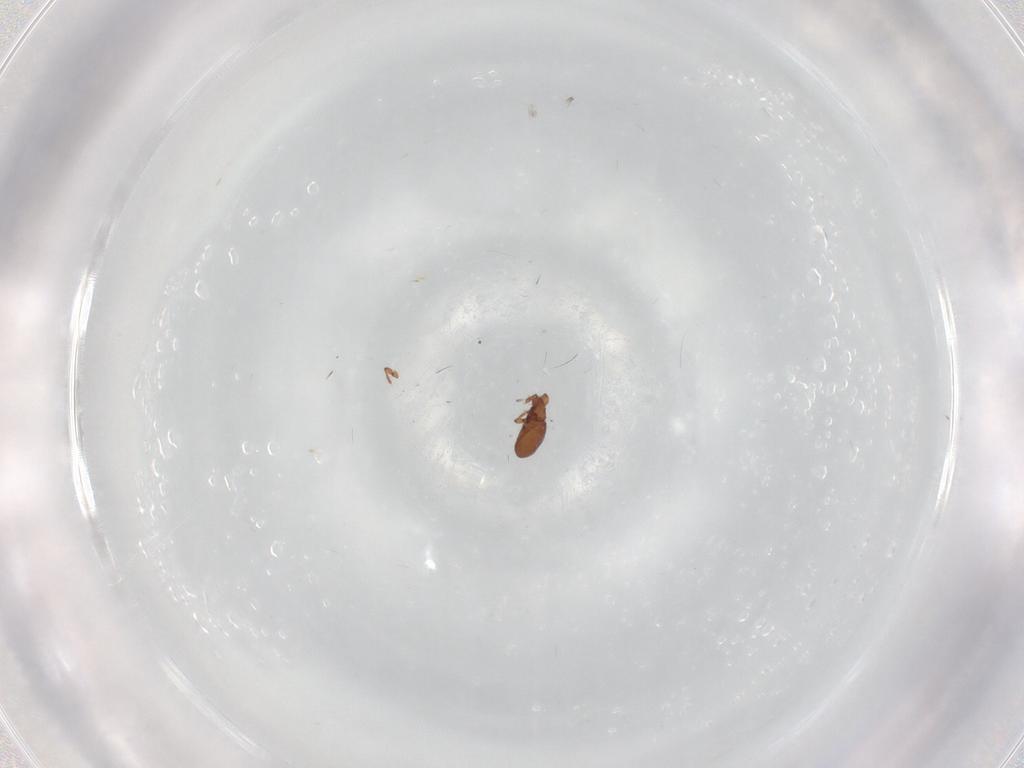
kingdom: Animalia
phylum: Arthropoda
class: Arachnida
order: Sarcoptiformes
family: Eremaeidae
